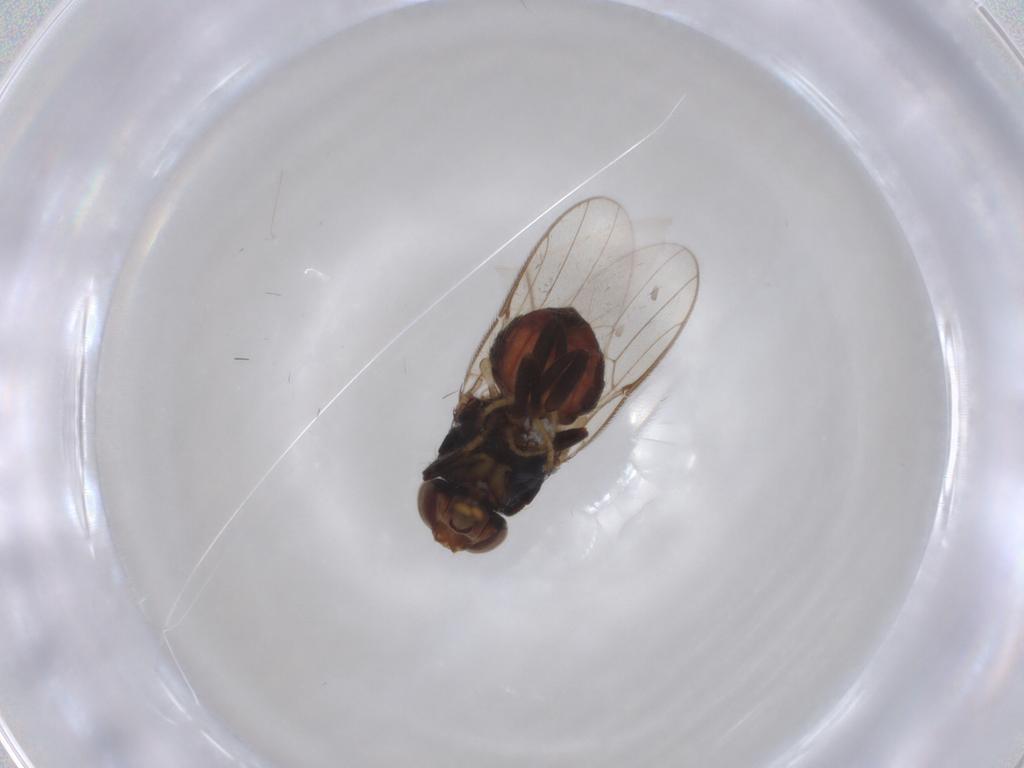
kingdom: Animalia
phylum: Arthropoda
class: Insecta
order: Diptera
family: Chloropidae
